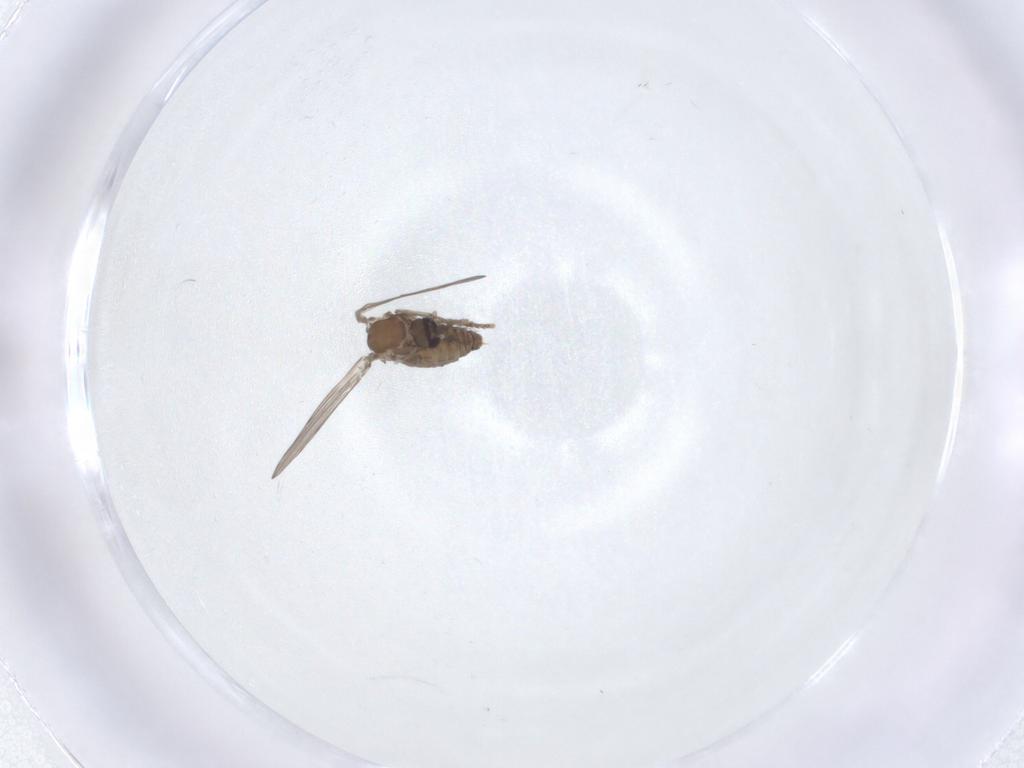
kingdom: Animalia
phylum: Arthropoda
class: Insecta
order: Diptera
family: Psychodidae
